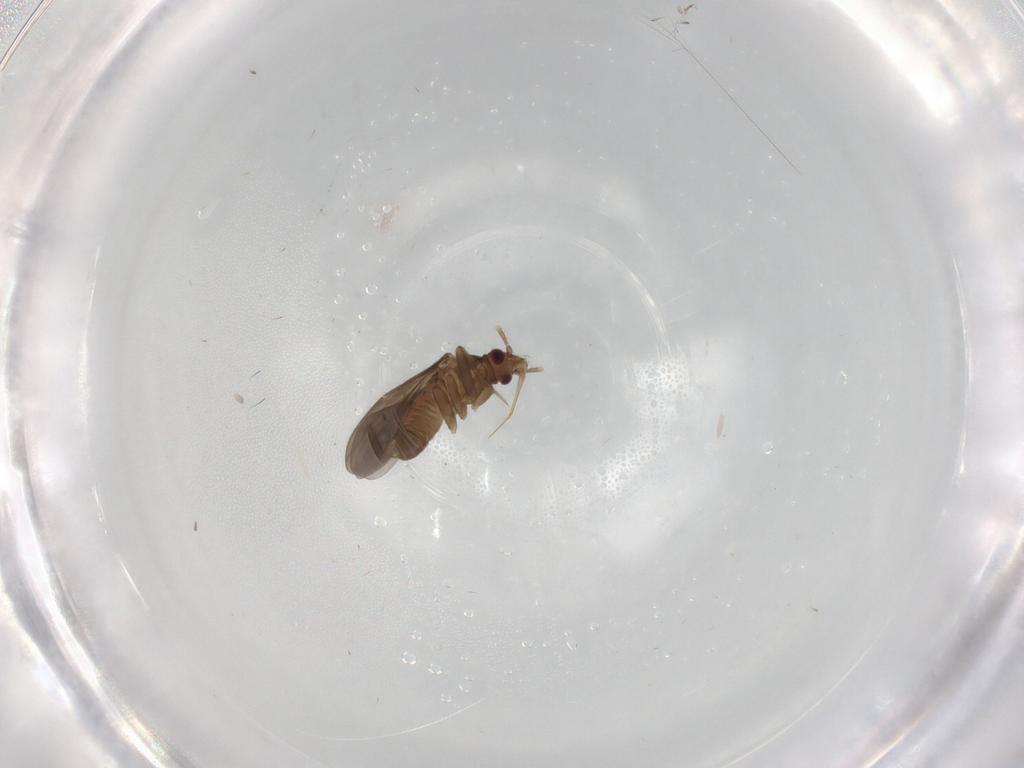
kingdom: Animalia
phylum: Arthropoda
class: Insecta
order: Hemiptera
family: Ceratocombidae
